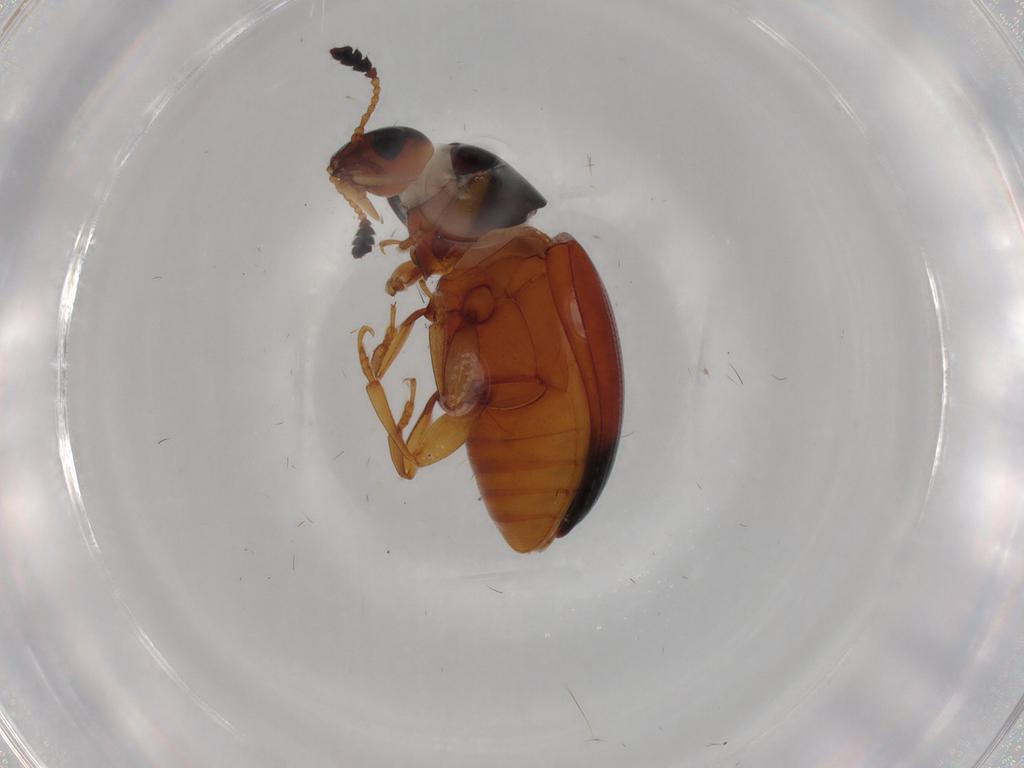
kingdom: Animalia
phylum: Arthropoda
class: Insecta
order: Coleoptera
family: Erotylidae
